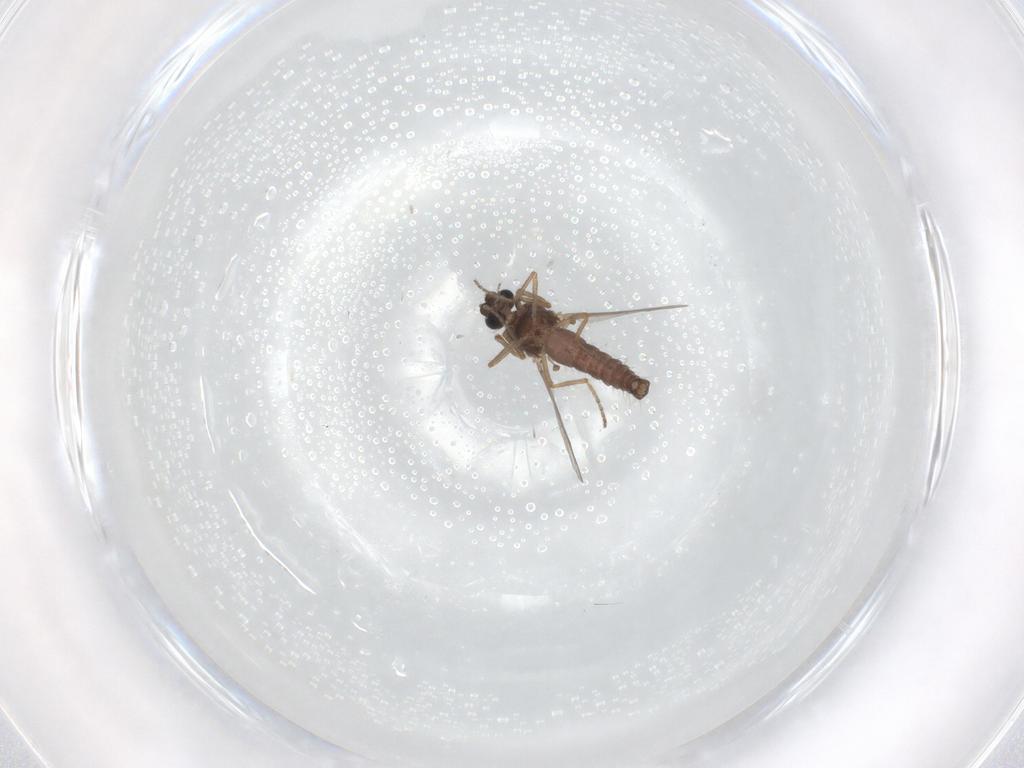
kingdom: Animalia
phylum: Arthropoda
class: Insecta
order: Diptera
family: Ceratopogonidae
